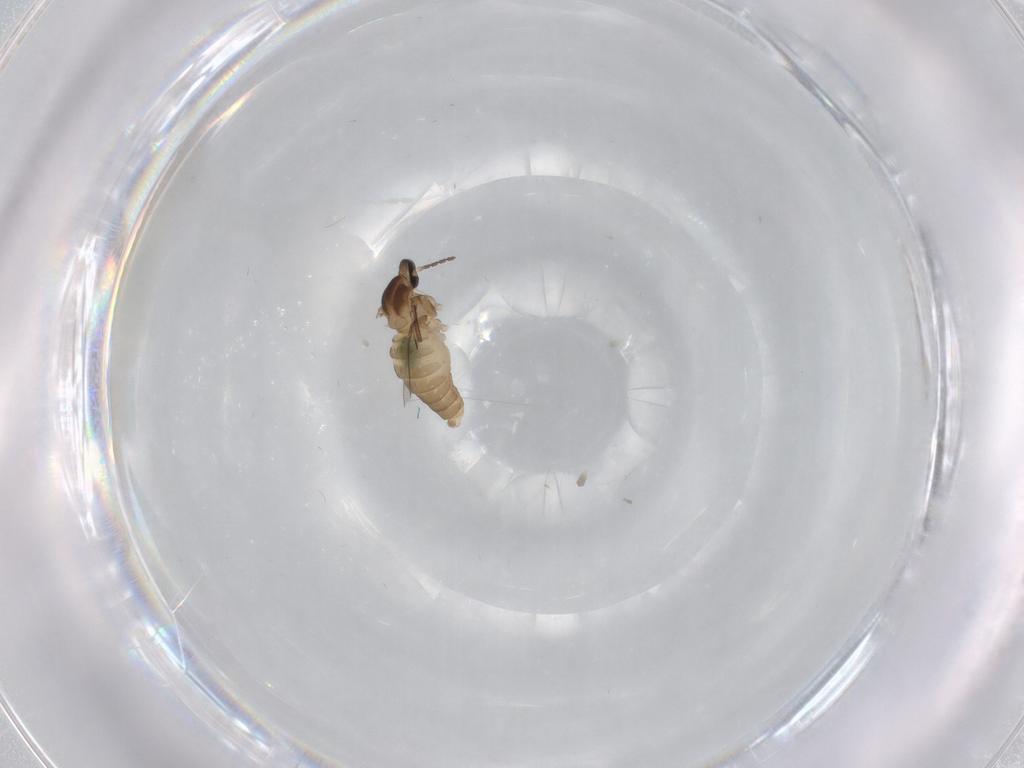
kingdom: Animalia
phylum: Arthropoda
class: Insecta
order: Diptera
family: Cecidomyiidae
